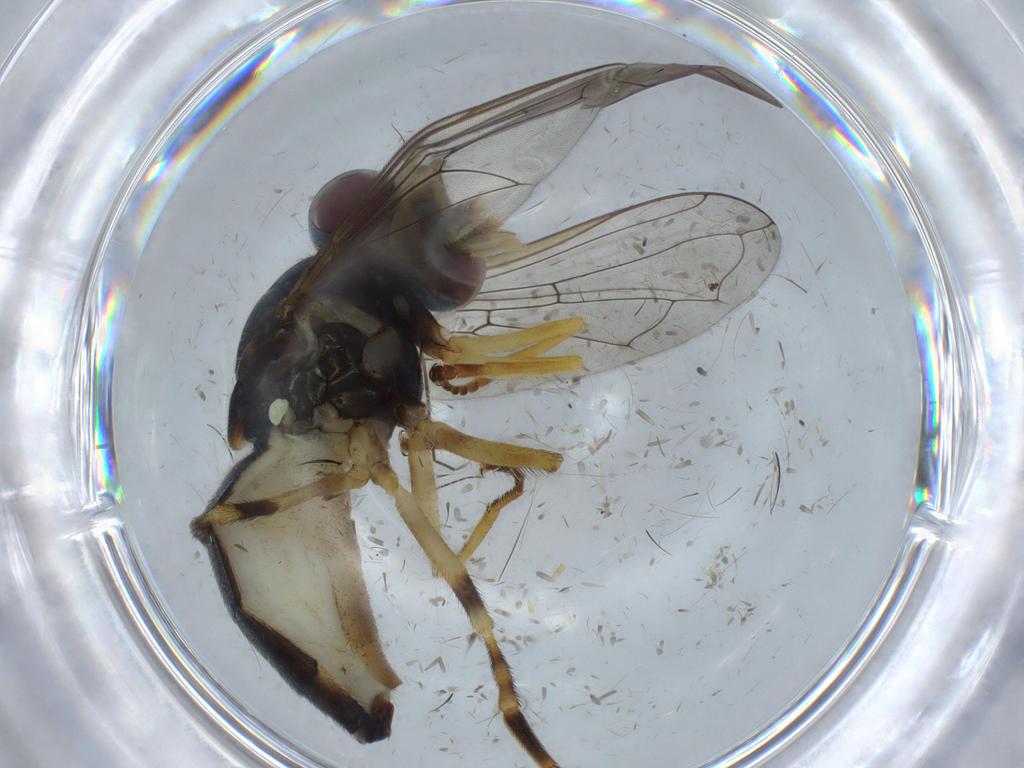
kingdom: Animalia
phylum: Arthropoda
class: Insecta
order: Diptera
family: Syrphidae
